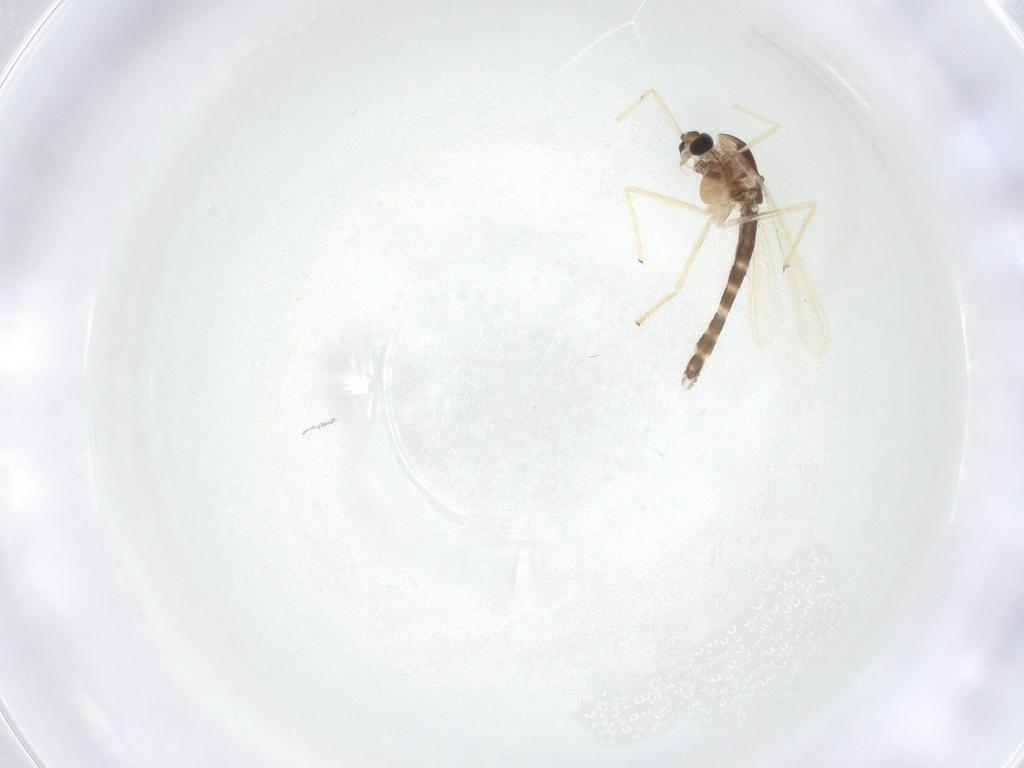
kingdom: Animalia
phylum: Arthropoda
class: Insecta
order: Diptera
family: Chironomidae
